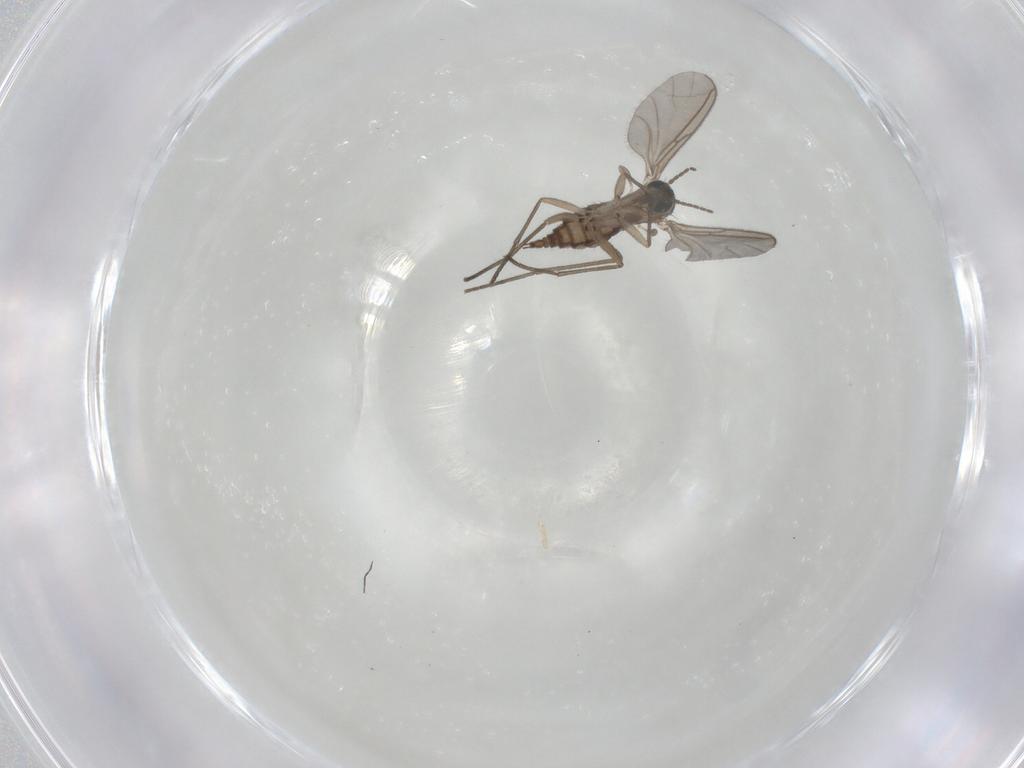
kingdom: Animalia
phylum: Arthropoda
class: Insecta
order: Diptera
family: Sciaridae
